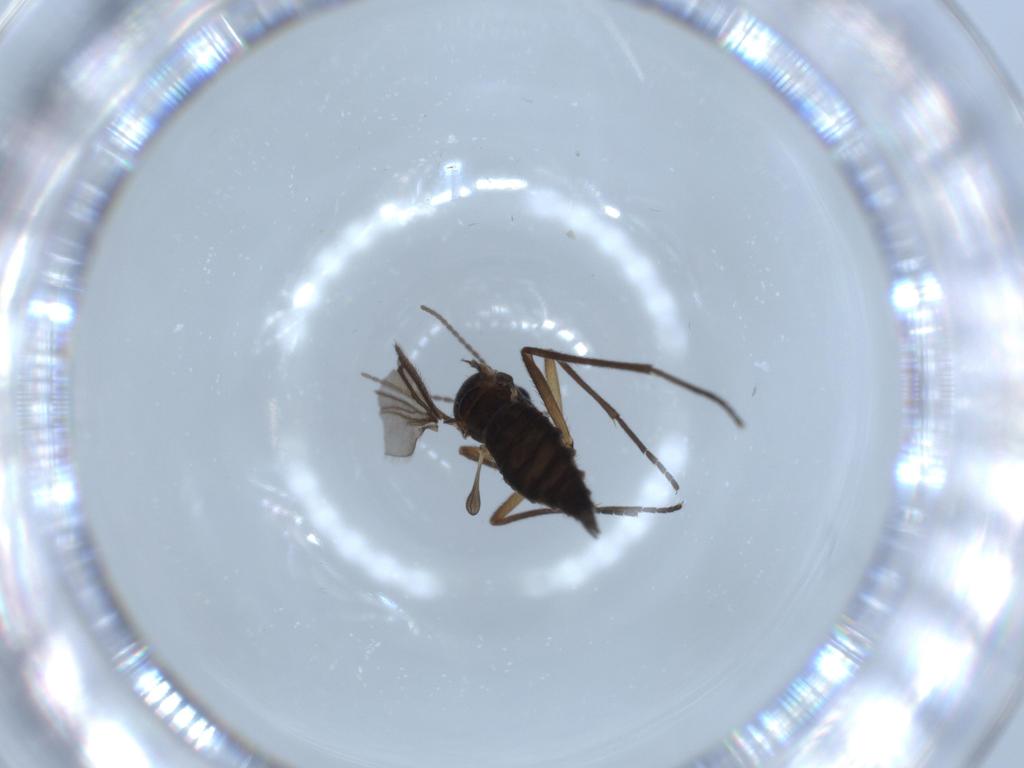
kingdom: Animalia
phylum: Arthropoda
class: Insecta
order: Diptera
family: Sciaridae
